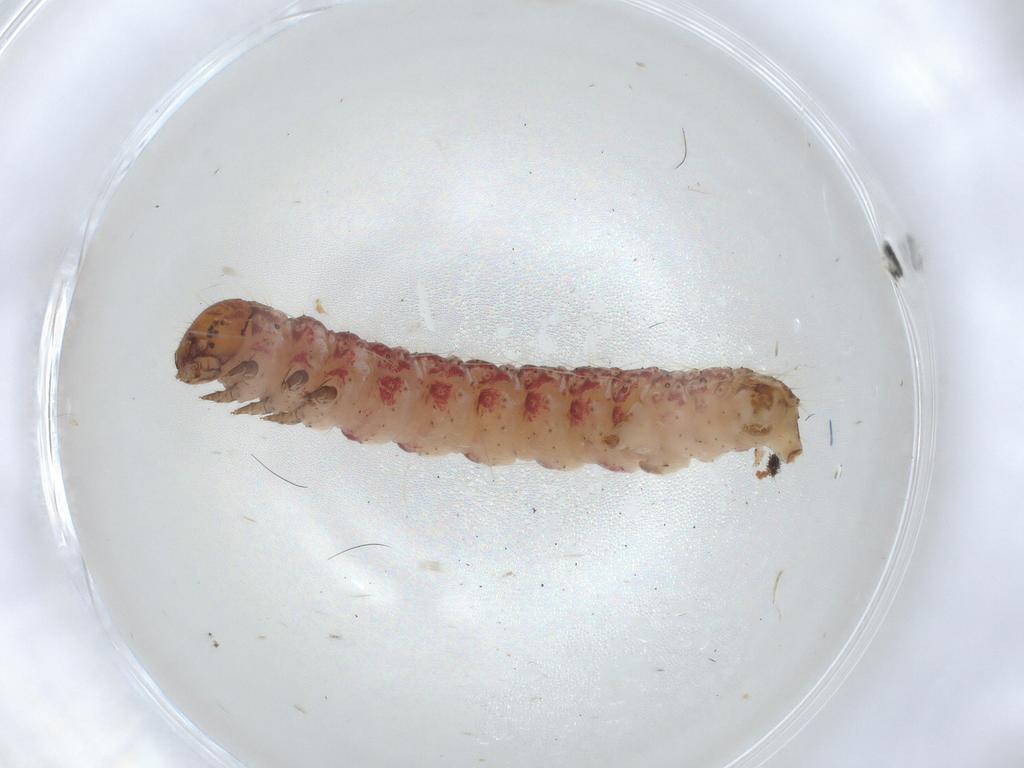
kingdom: Animalia
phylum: Arthropoda
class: Insecta
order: Lepidoptera
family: Geometridae
